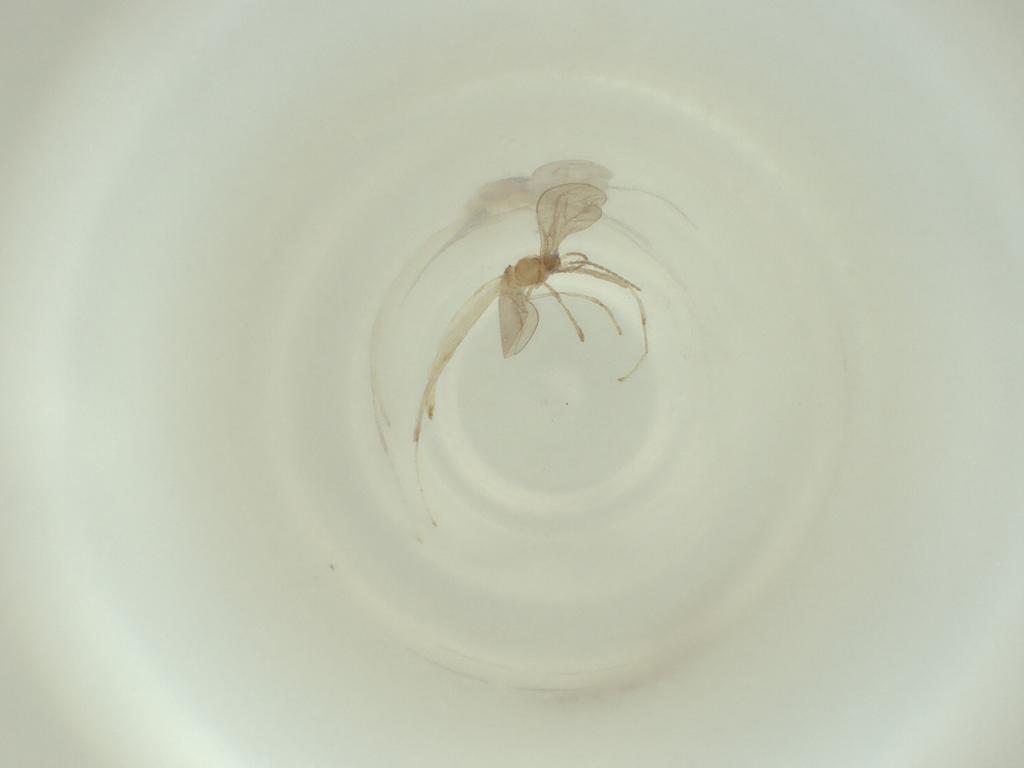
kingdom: Animalia
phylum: Arthropoda
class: Insecta
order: Diptera
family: Cecidomyiidae
